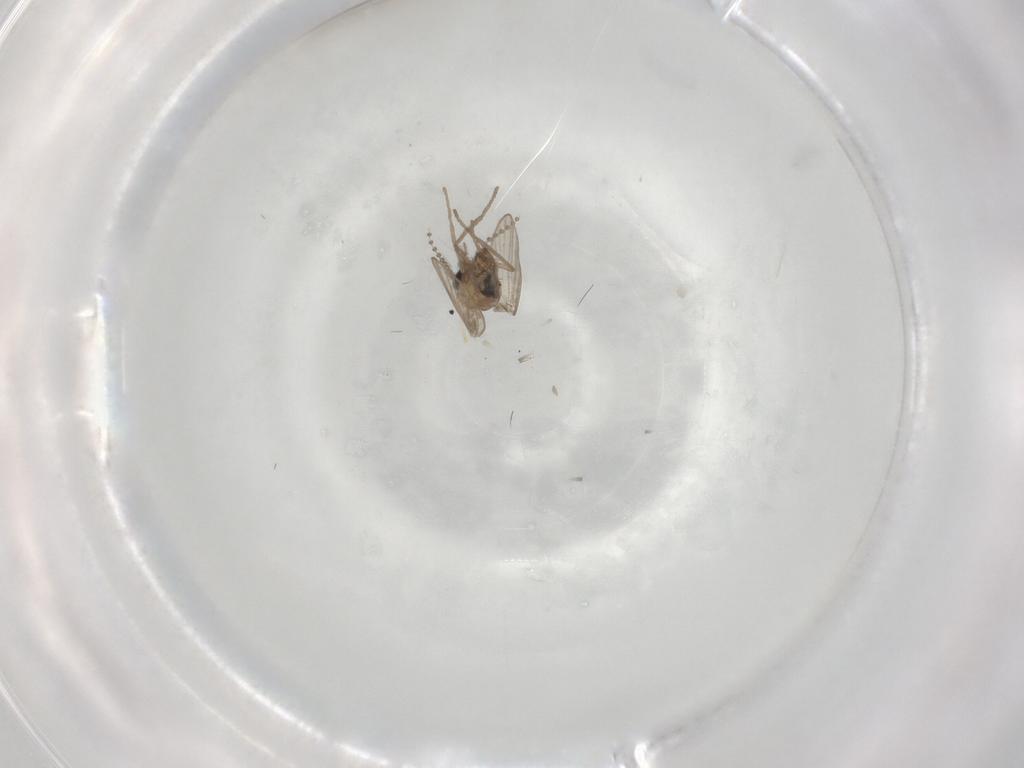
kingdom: Animalia
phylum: Arthropoda
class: Insecta
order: Diptera
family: Psychodidae
